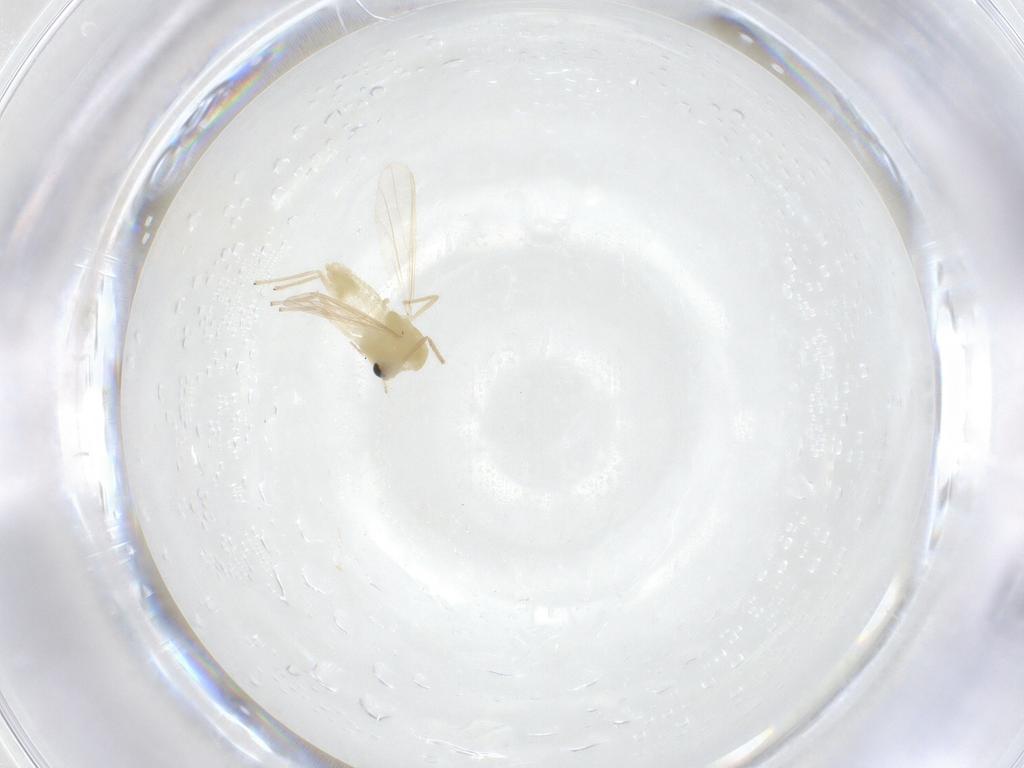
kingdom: Animalia
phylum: Arthropoda
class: Insecta
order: Diptera
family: Chironomidae
